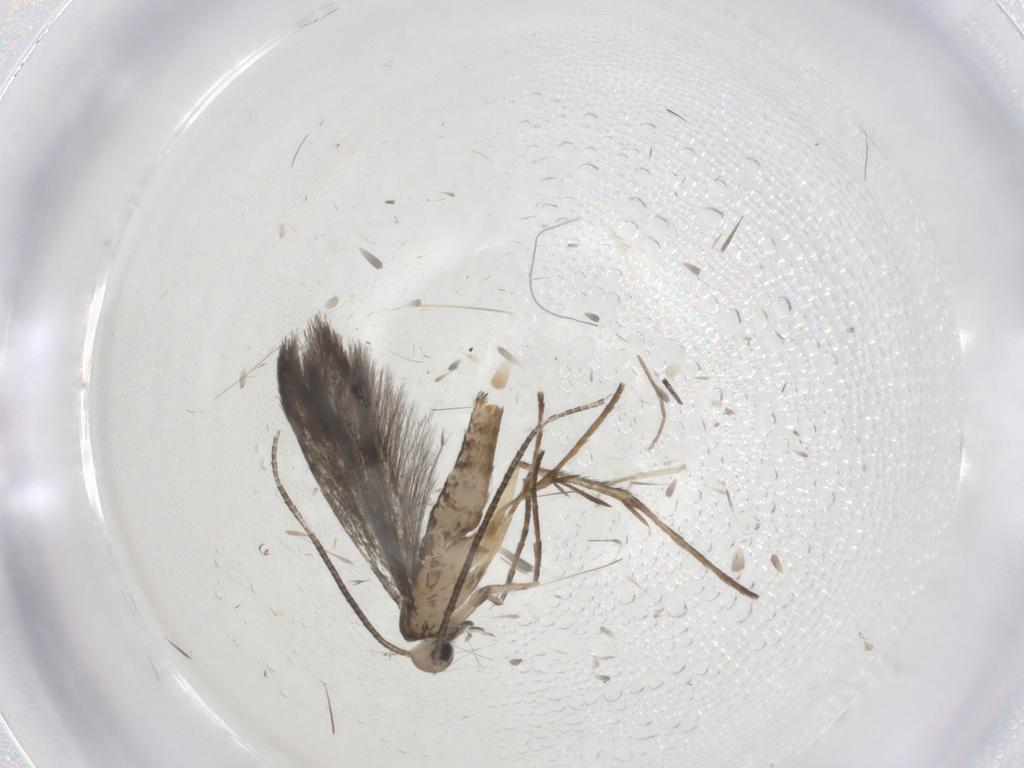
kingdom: Animalia
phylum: Arthropoda
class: Insecta
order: Lepidoptera
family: Gracillariidae
